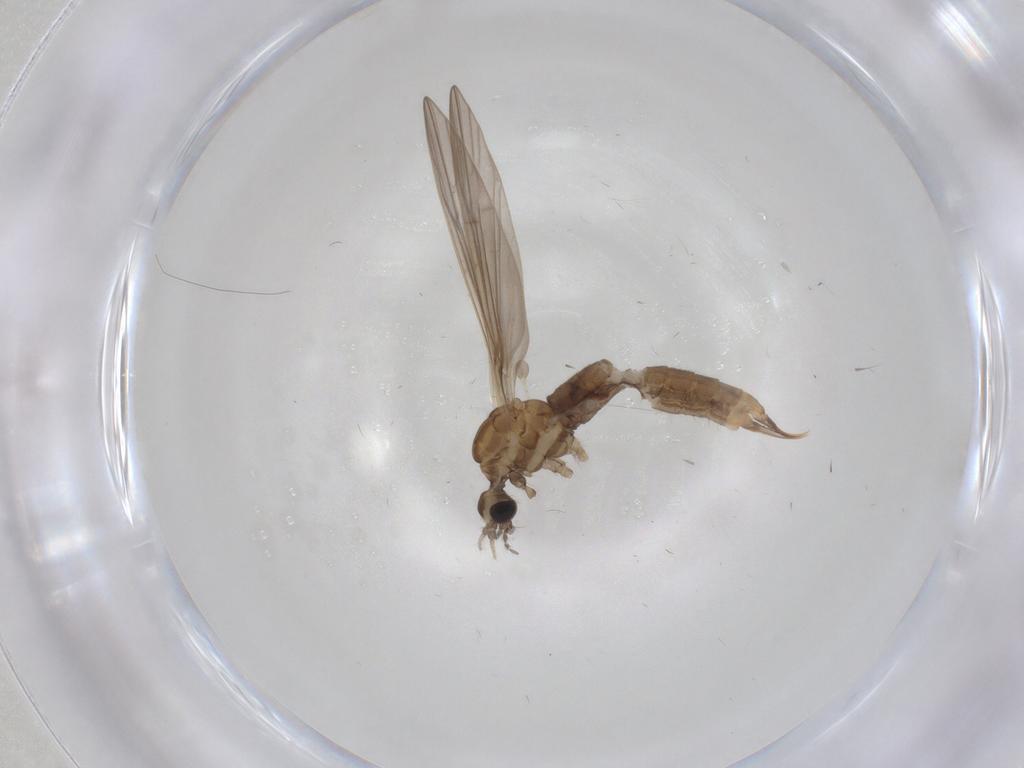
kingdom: Animalia
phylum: Arthropoda
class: Insecta
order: Diptera
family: Limoniidae
